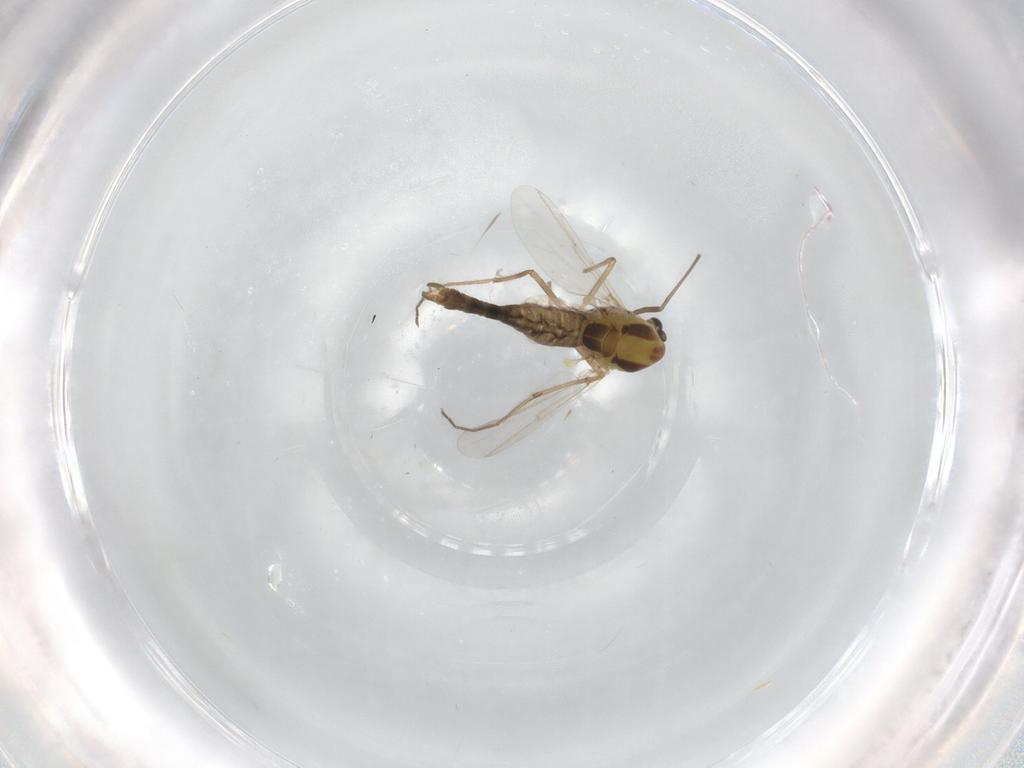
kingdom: Animalia
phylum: Arthropoda
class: Insecta
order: Diptera
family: Chironomidae
